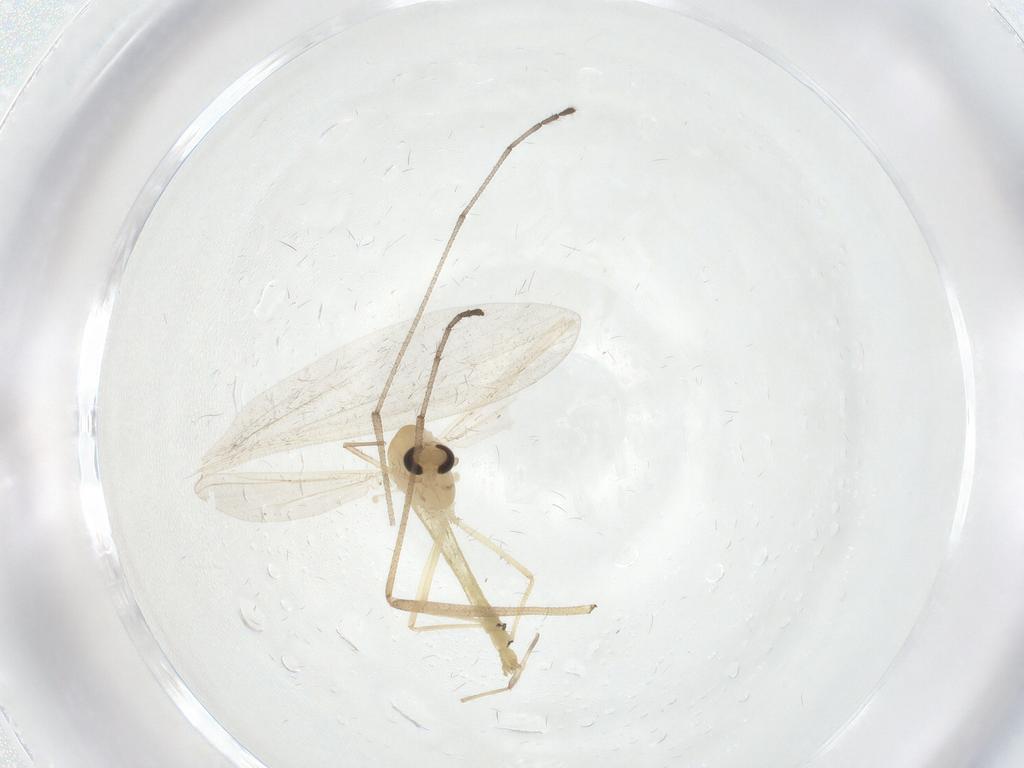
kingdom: Animalia
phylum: Arthropoda
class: Insecta
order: Diptera
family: Chironomidae
